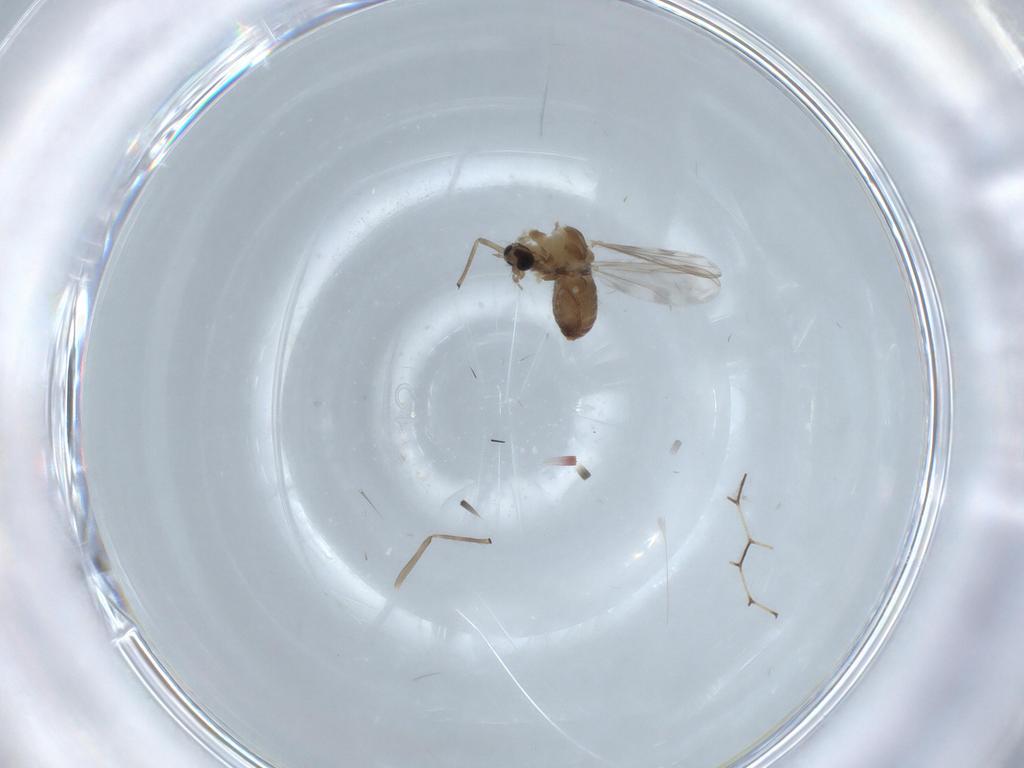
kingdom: Animalia
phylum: Arthropoda
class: Insecta
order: Diptera
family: Chironomidae
